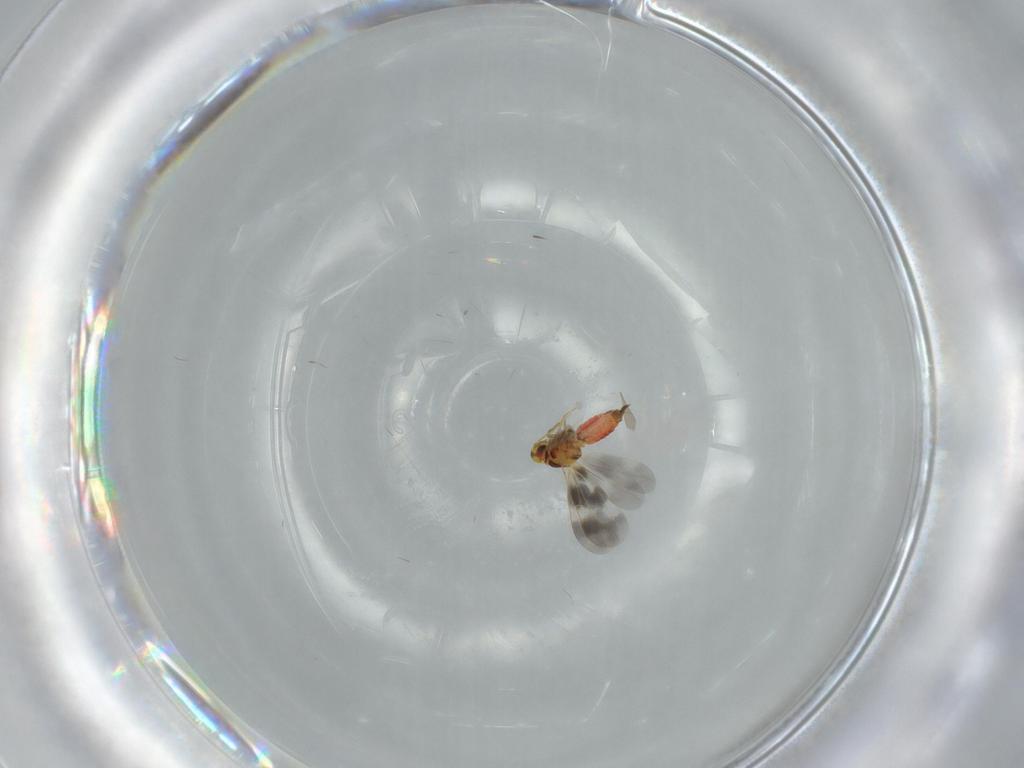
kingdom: Animalia
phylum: Arthropoda
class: Insecta
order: Hemiptera
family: Aleyrodidae
